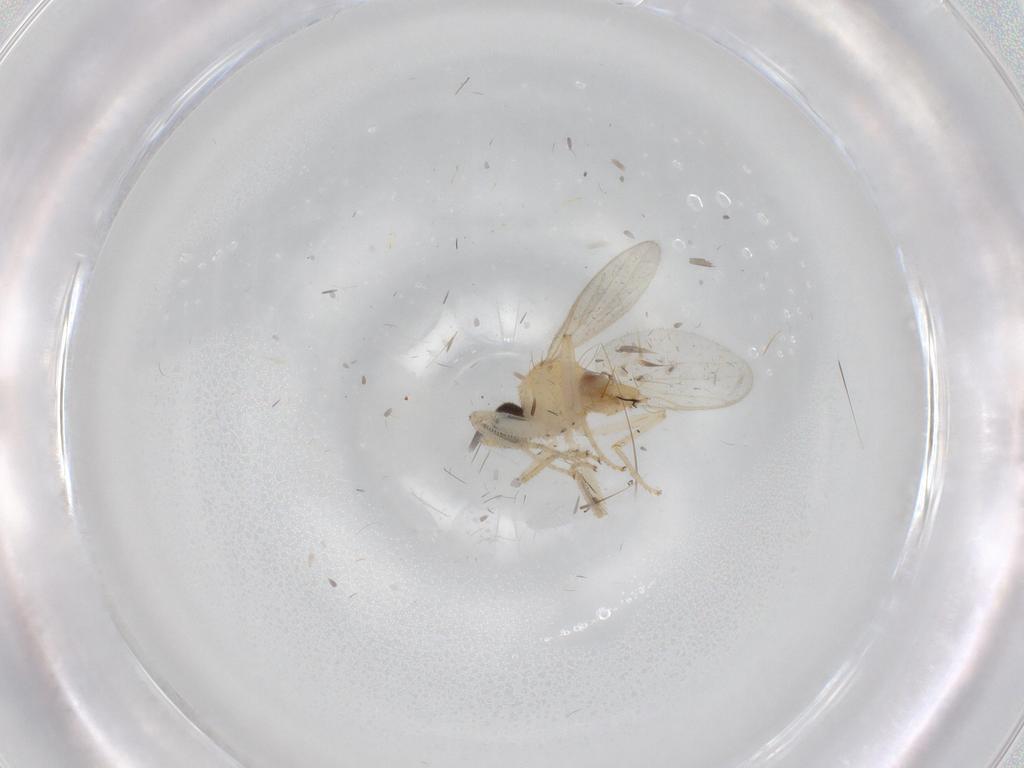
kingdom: Animalia
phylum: Arthropoda
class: Insecta
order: Diptera
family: Cecidomyiidae
